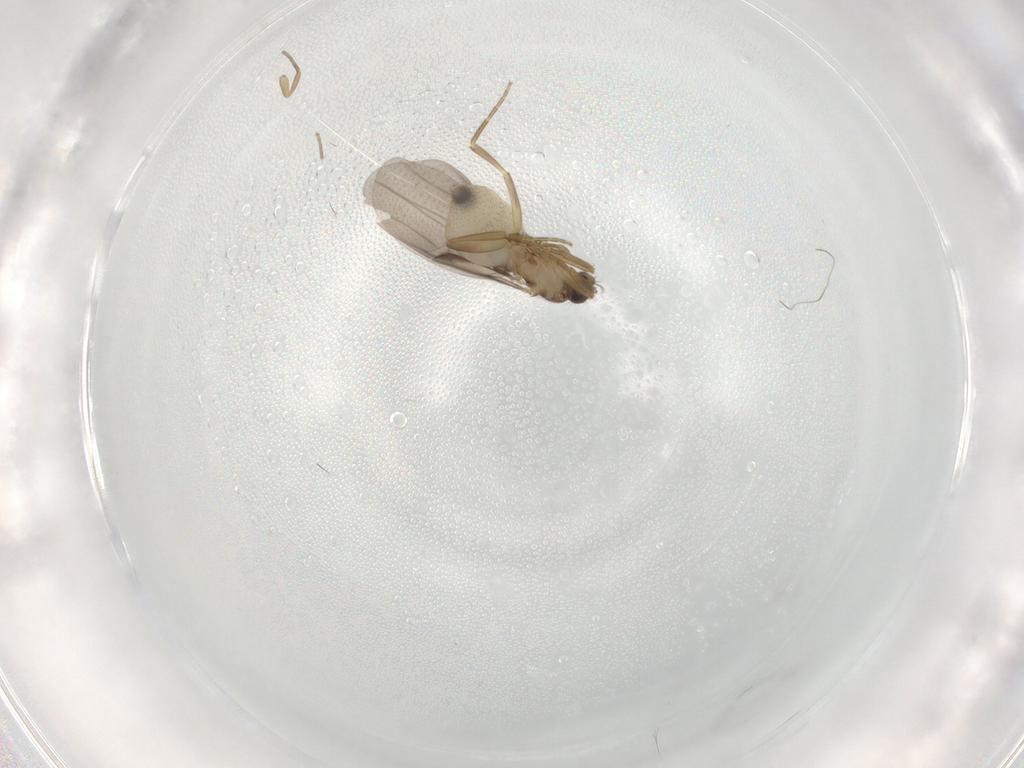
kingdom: Animalia
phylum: Arthropoda
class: Insecta
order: Diptera
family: Phoridae
